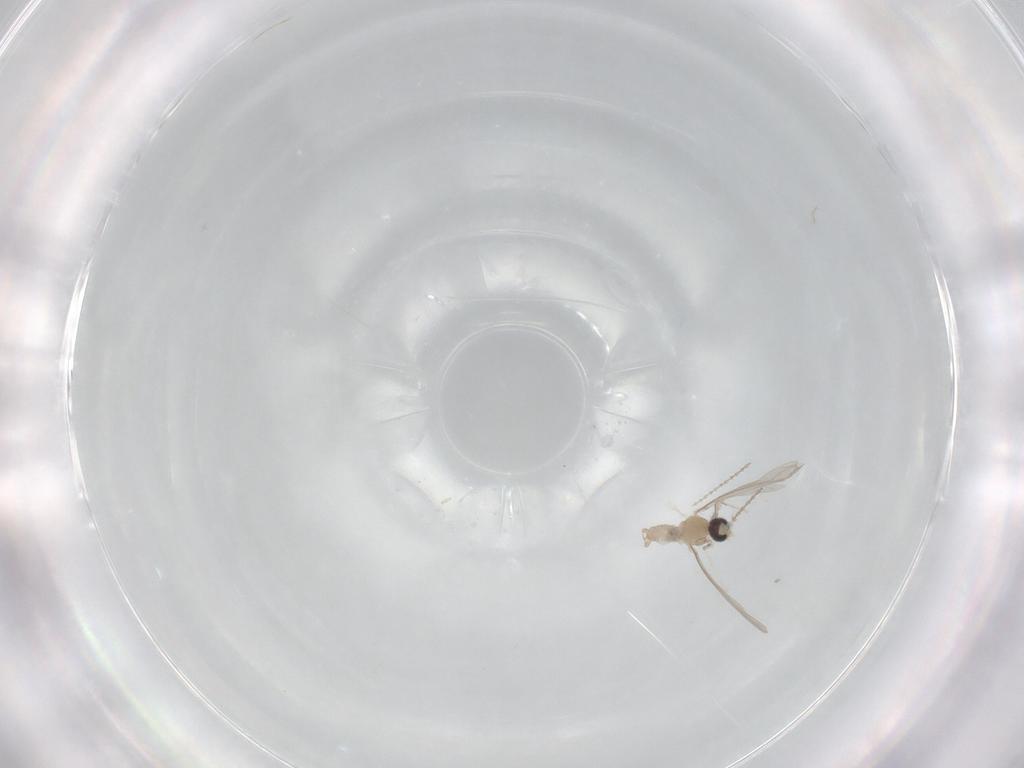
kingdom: Animalia
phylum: Arthropoda
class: Insecta
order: Diptera
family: Cecidomyiidae
